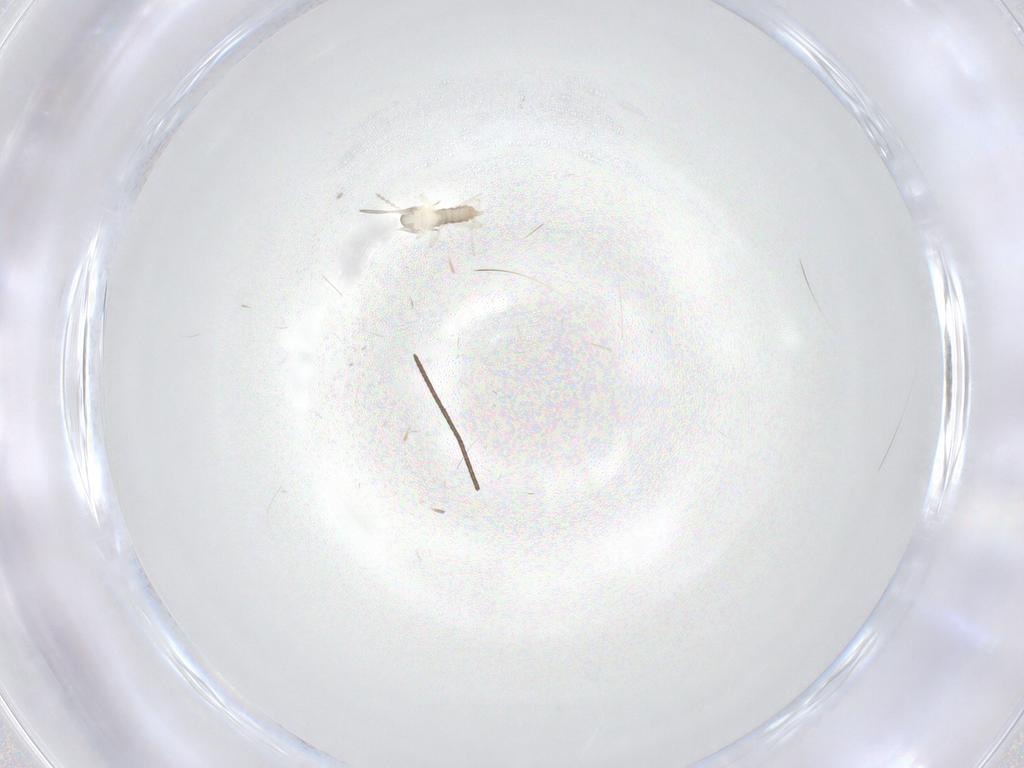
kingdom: Animalia
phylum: Arthropoda
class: Insecta
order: Diptera
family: Cecidomyiidae
